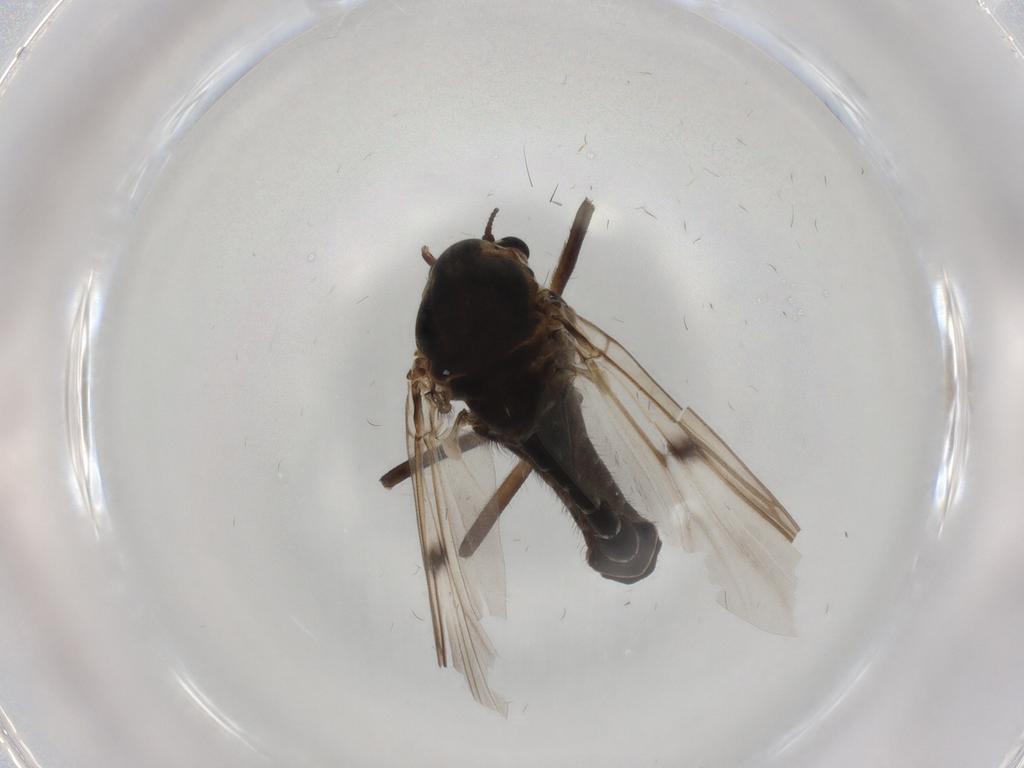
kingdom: Animalia
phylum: Arthropoda
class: Insecta
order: Diptera
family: Chironomidae
